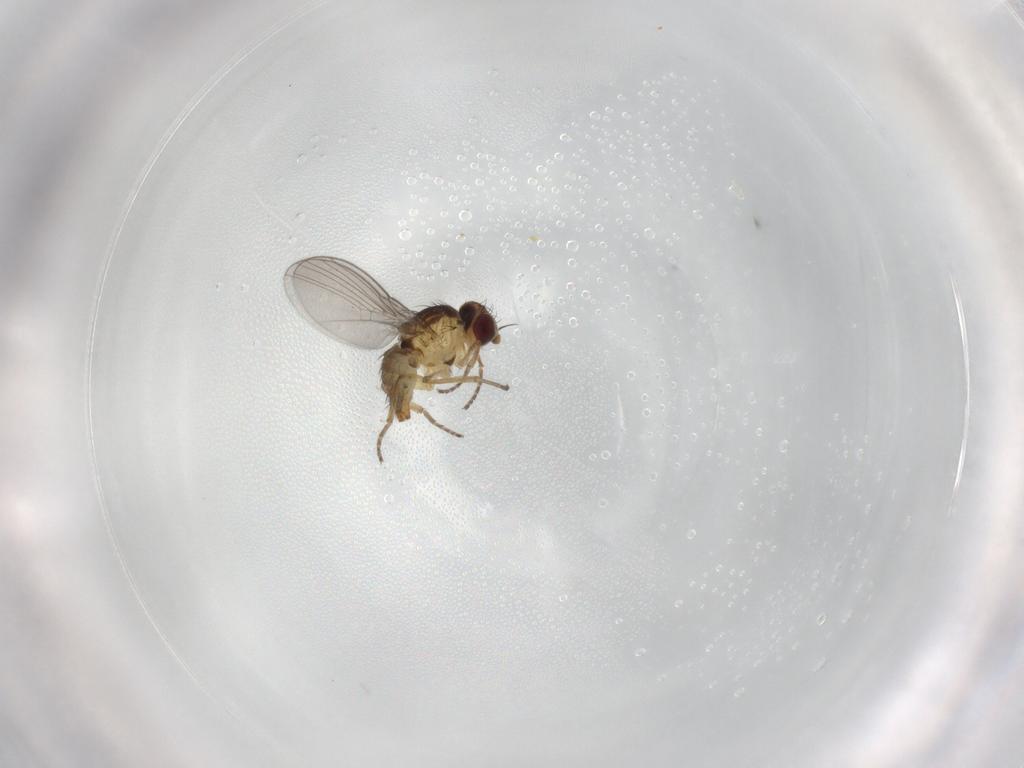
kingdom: Animalia
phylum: Arthropoda
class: Insecta
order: Diptera
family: Agromyzidae
